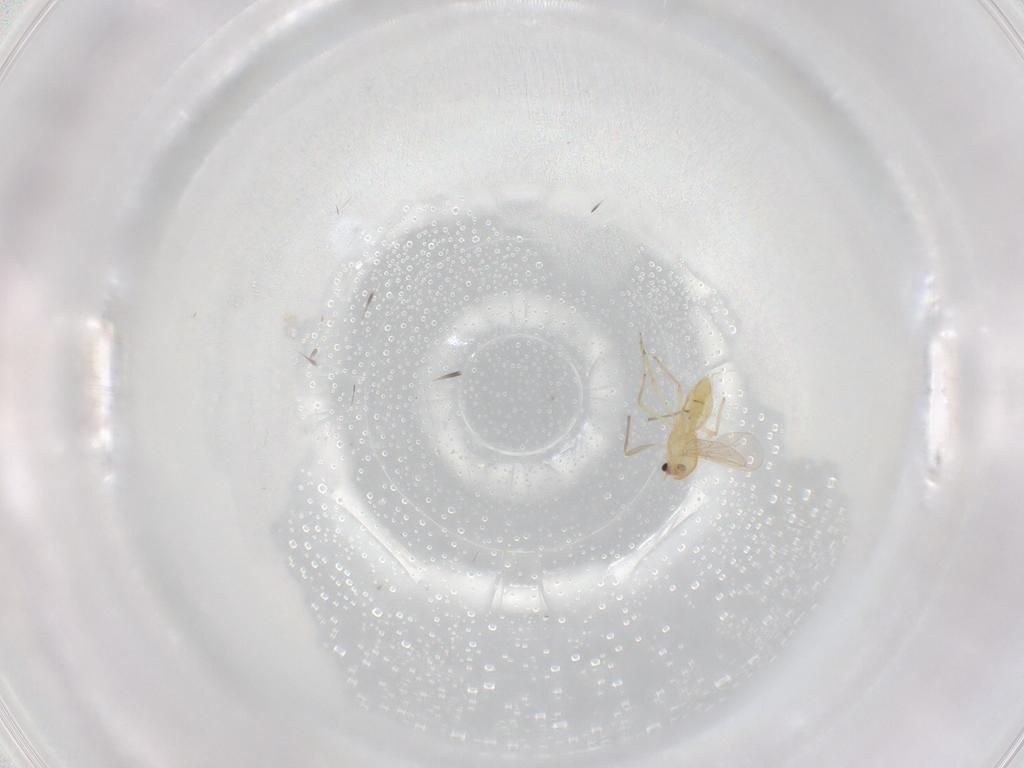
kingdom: Animalia
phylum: Arthropoda
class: Insecta
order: Diptera
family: Chironomidae
